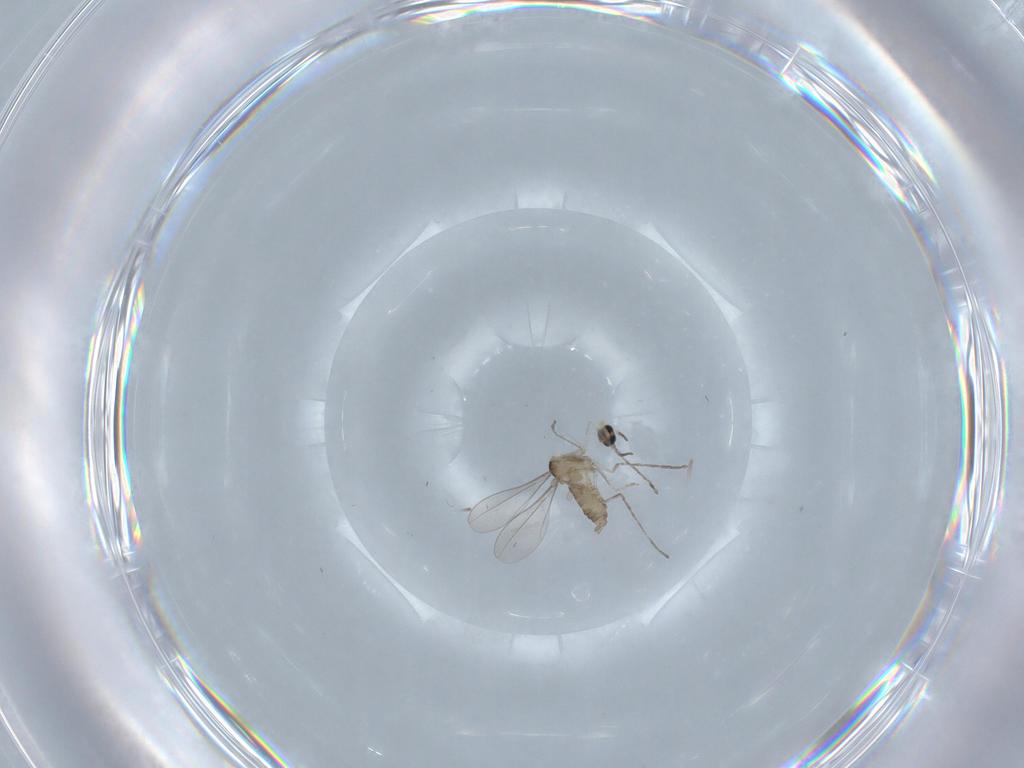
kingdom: Animalia
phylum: Arthropoda
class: Insecta
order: Diptera
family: Cecidomyiidae
